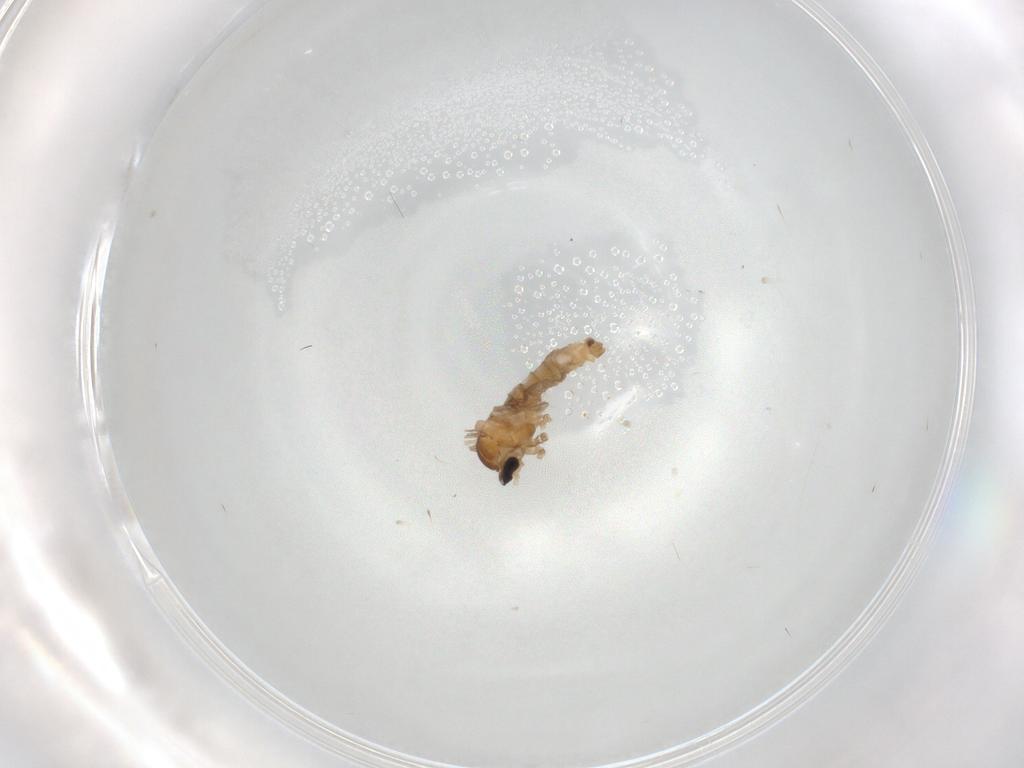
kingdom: Animalia
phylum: Arthropoda
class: Insecta
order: Diptera
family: Cecidomyiidae
